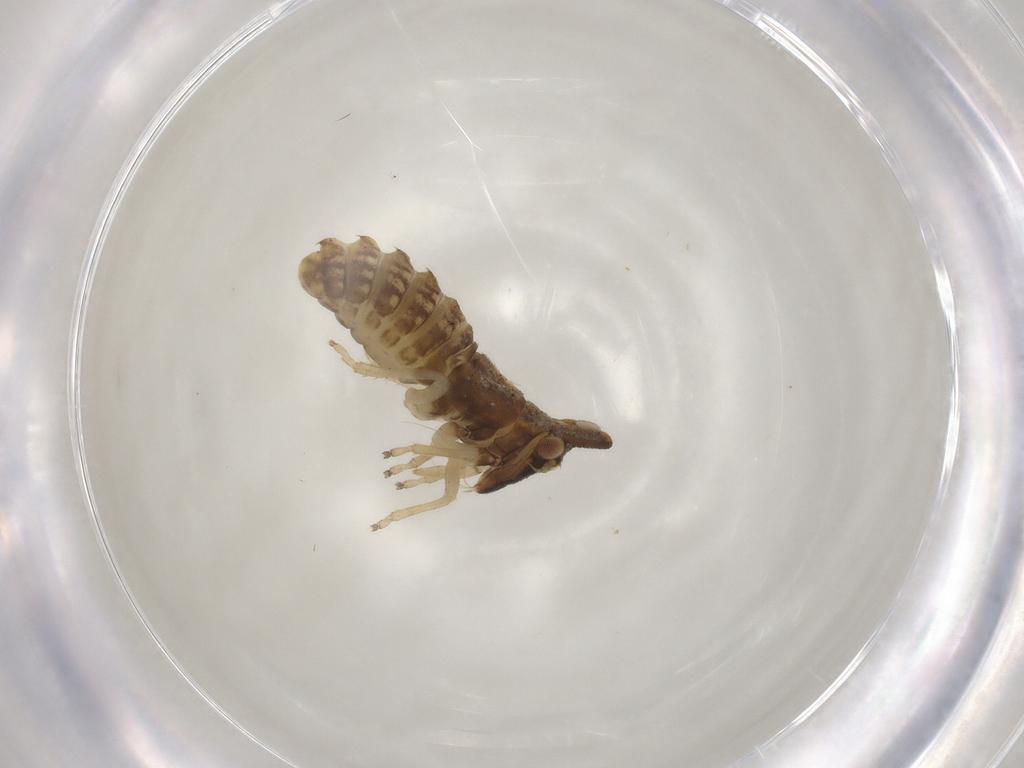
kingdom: Animalia
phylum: Arthropoda
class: Insecta
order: Hemiptera
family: Cicadellidae
